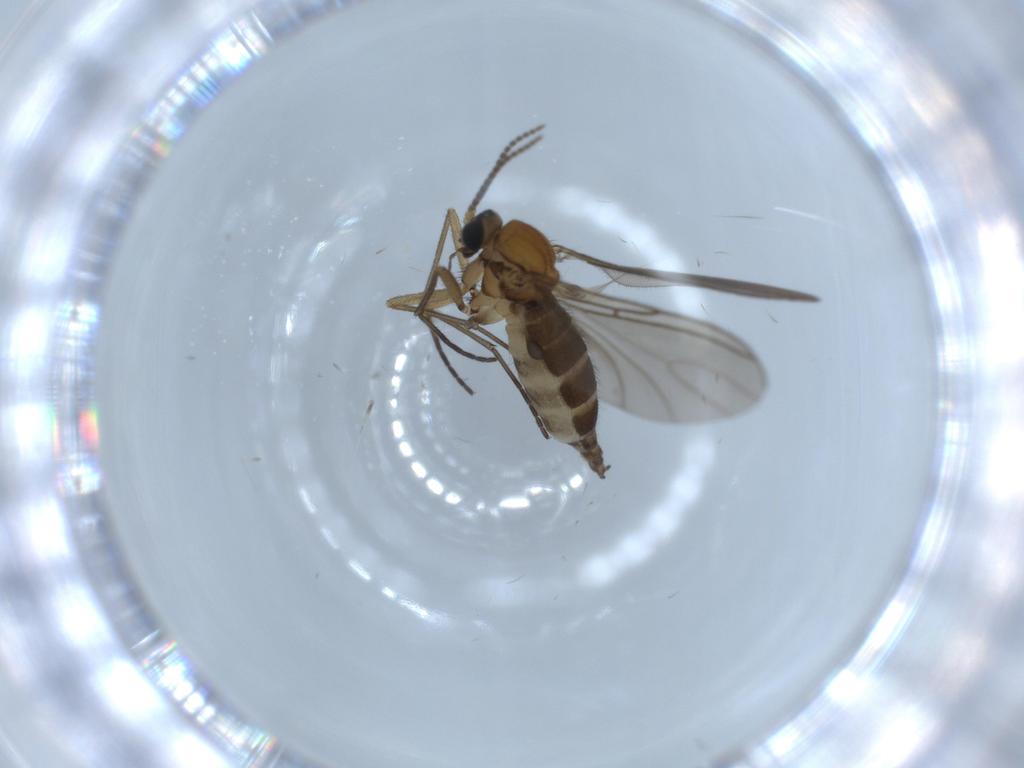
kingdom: Animalia
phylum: Arthropoda
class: Insecta
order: Diptera
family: Sciaridae
